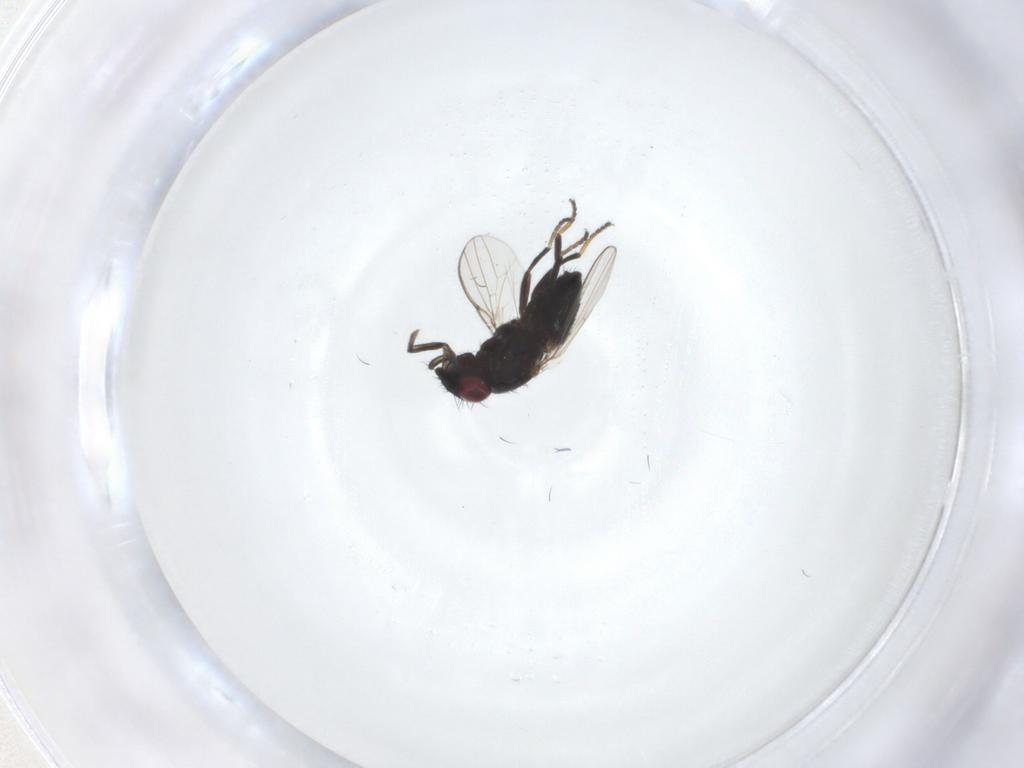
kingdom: Animalia
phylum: Arthropoda
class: Insecta
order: Diptera
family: Milichiidae
